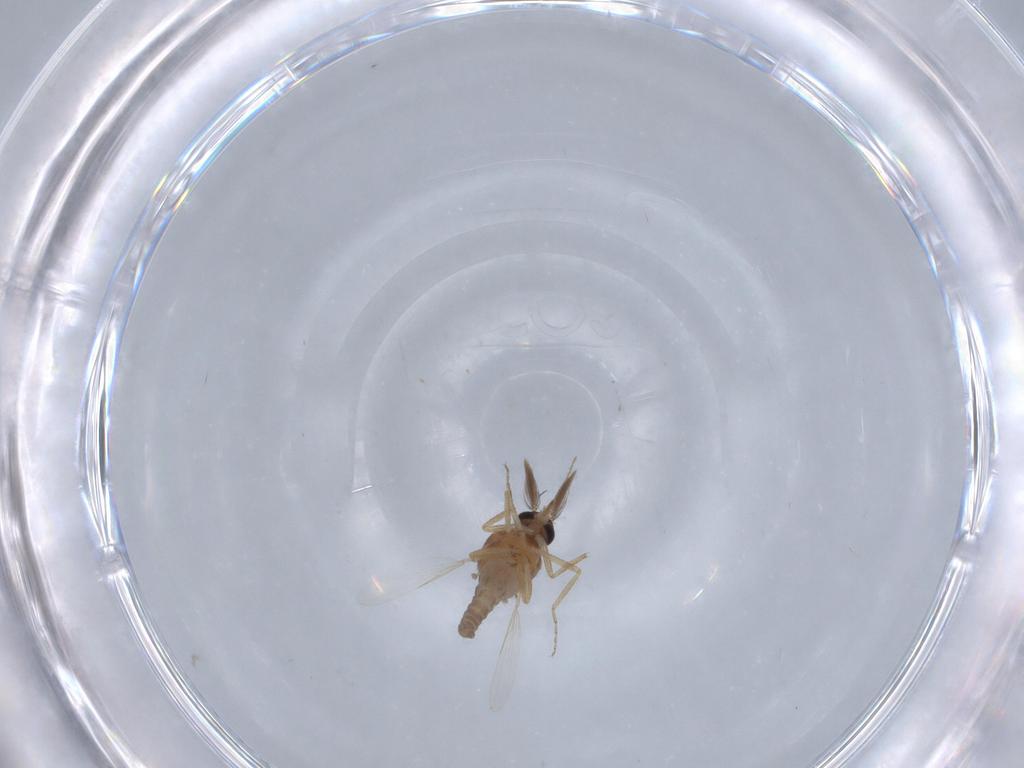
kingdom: Animalia
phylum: Arthropoda
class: Insecta
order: Diptera
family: Ceratopogonidae
